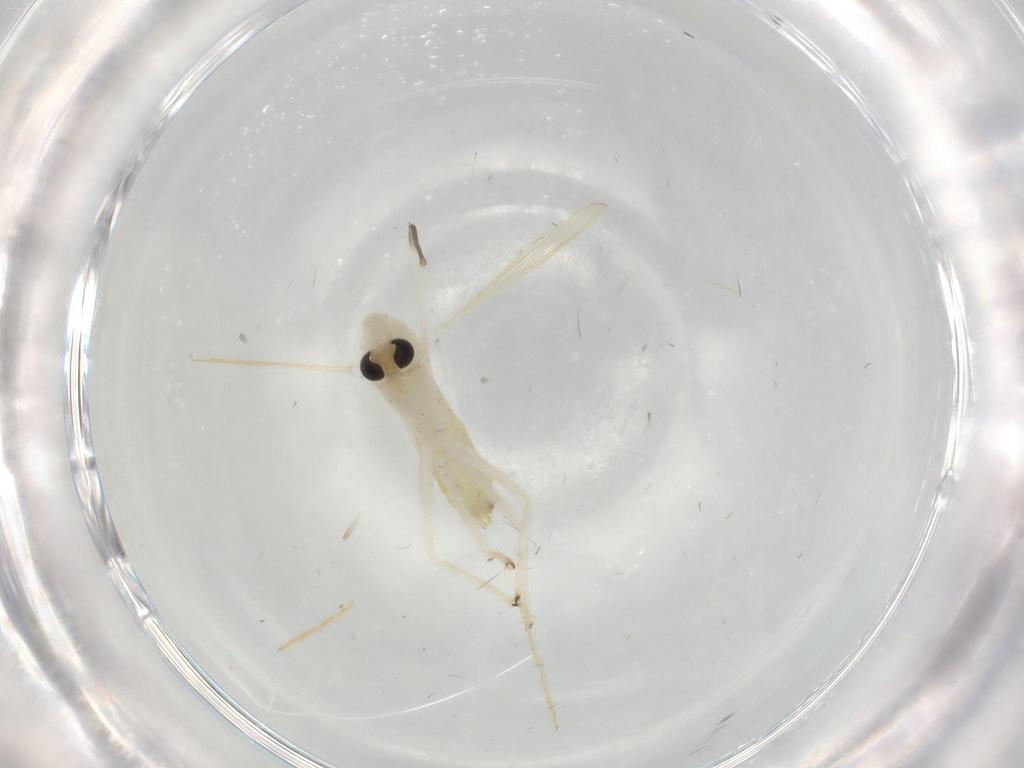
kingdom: Animalia
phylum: Arthropoda
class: Insecta
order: Diptera
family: Chironomidae
